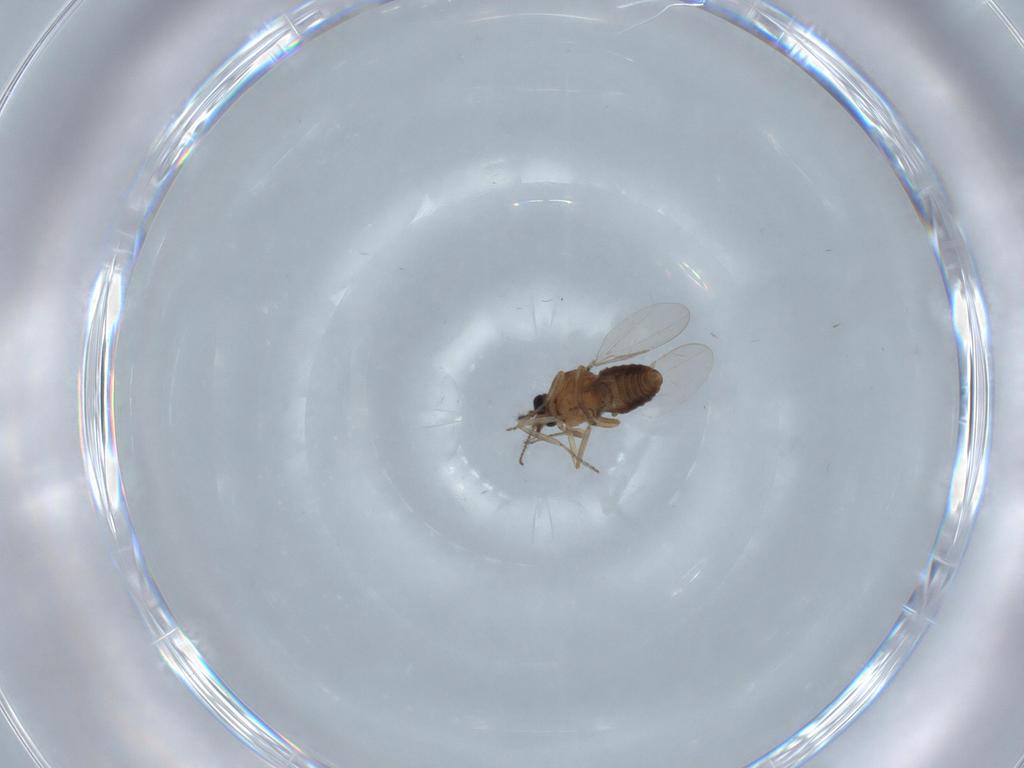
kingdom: Animalia
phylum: Arthropoda
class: Insecta
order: Diptera
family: Ceratopogonidae
